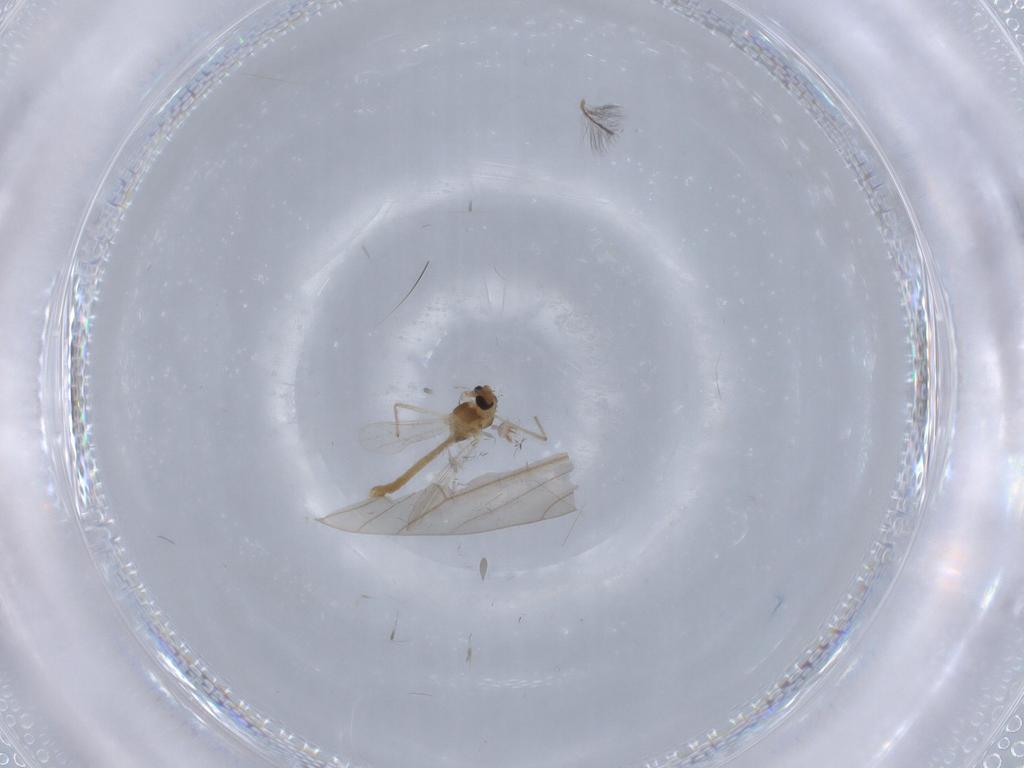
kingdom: Animalia
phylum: Arthropoda
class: Insecta
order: Diptera
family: Chironomidae
